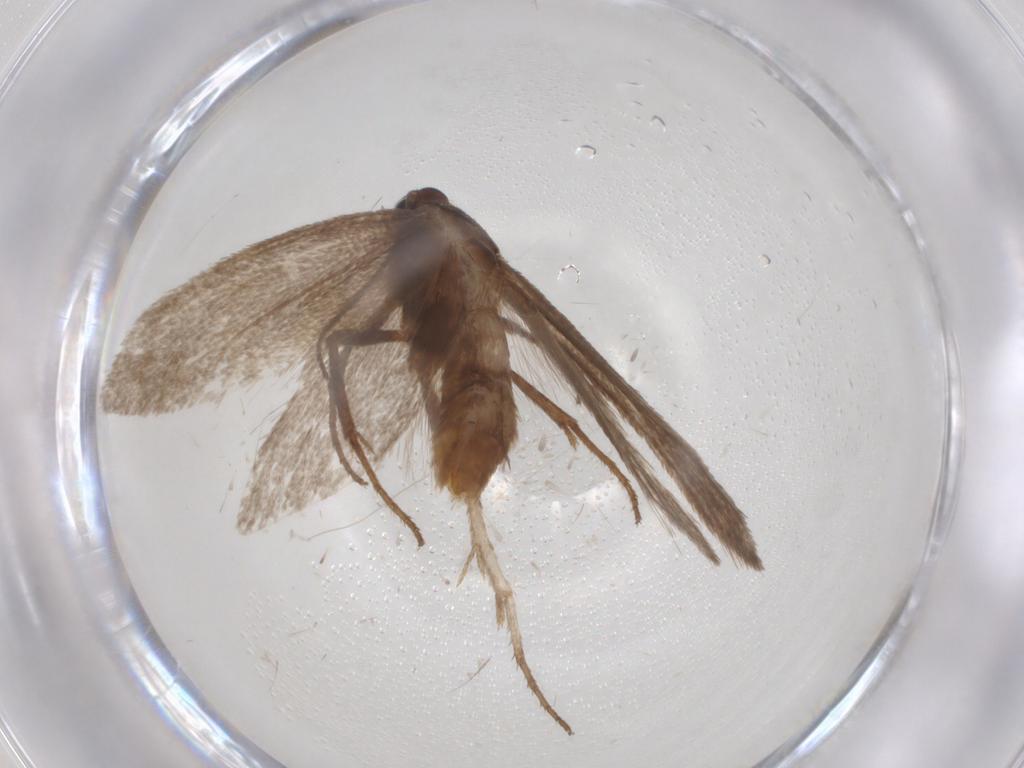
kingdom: Animalia
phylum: Arthropoda
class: Insecta
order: Lepidoptera
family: Limacodidae
